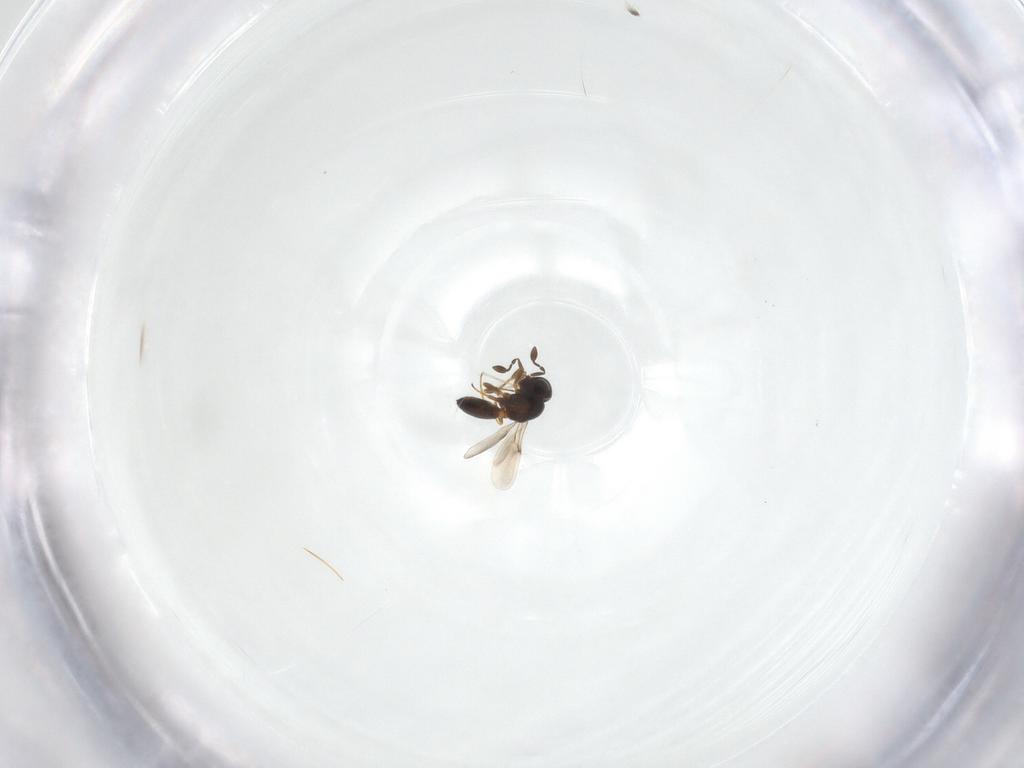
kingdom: Animalia
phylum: Arthropoda
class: Insecta
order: Hymenoptera
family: Scelionidae
